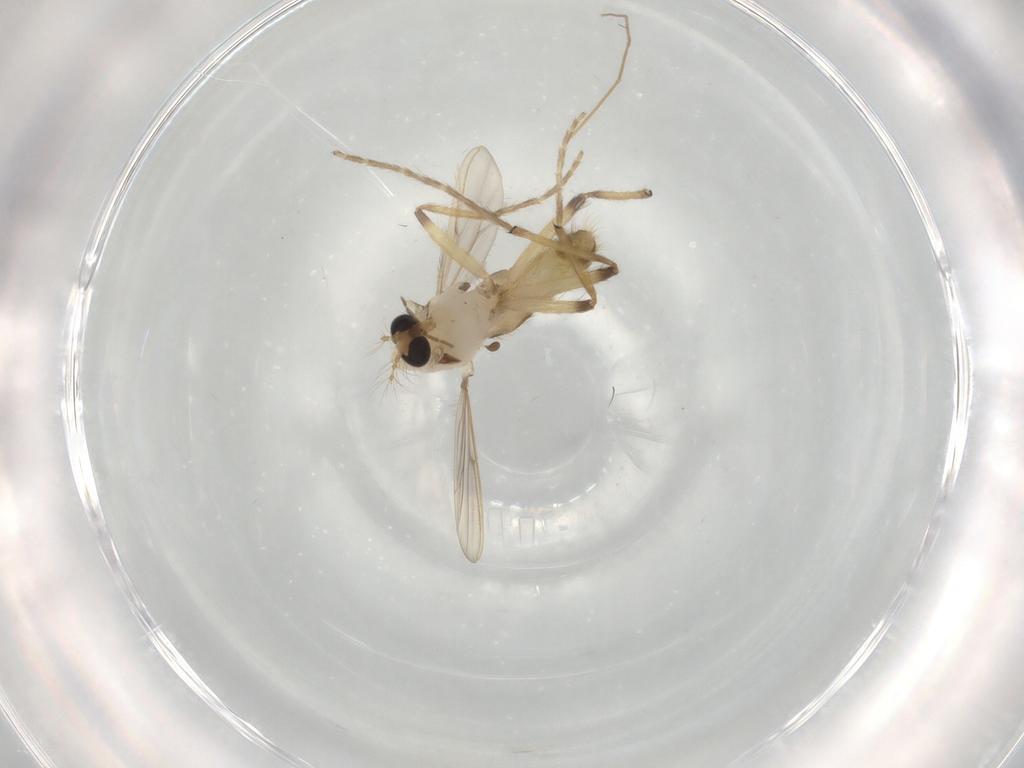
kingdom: Animalia
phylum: Arthropoda
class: Insecta
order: Diptera
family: Chironomidae
